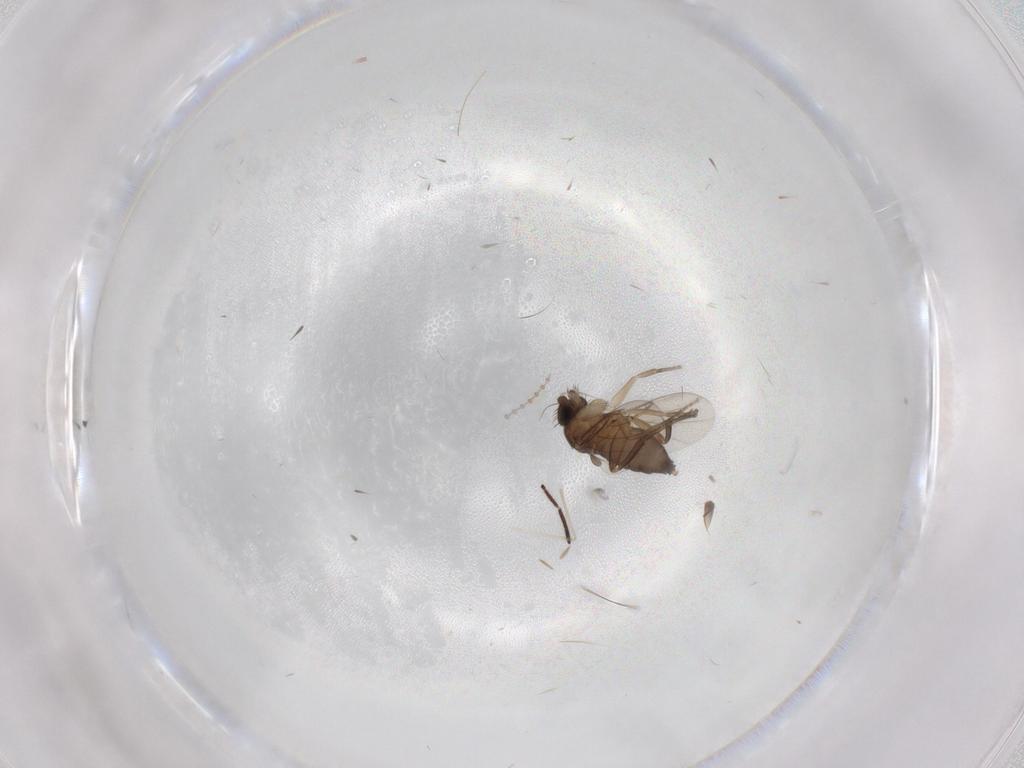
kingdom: Animalia
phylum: Arthropoda
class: Insecta
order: Diptera
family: Phoridae
